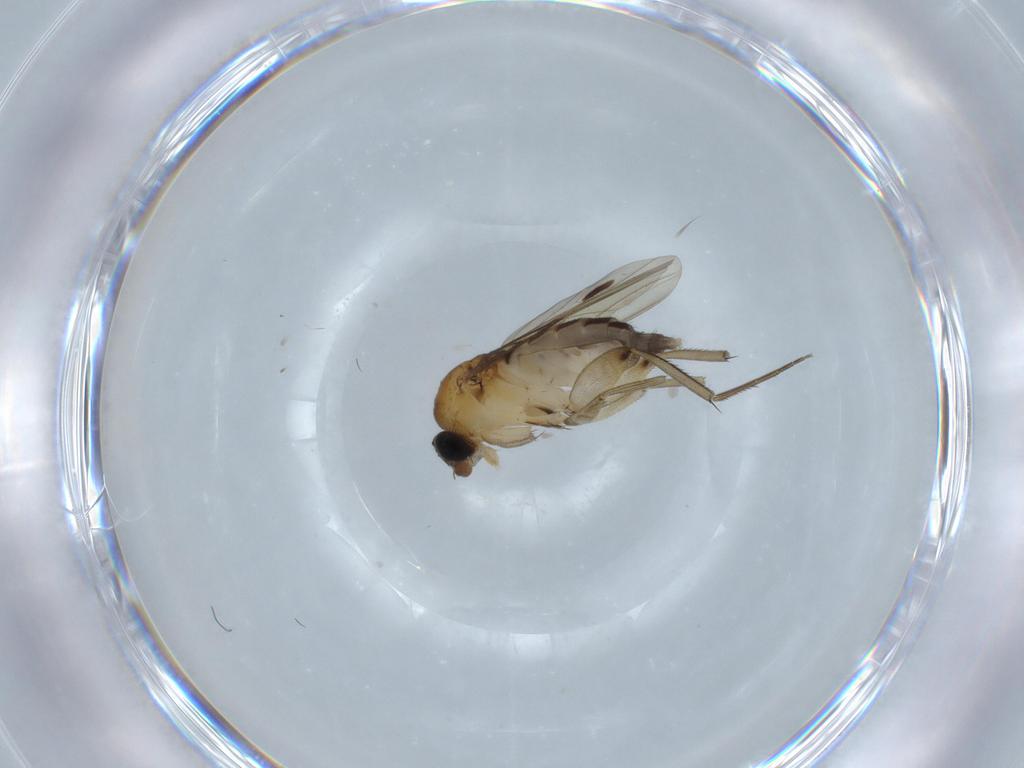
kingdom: Animalia
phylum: Arthropoda
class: Insecta
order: Diptera
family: Phoridae
